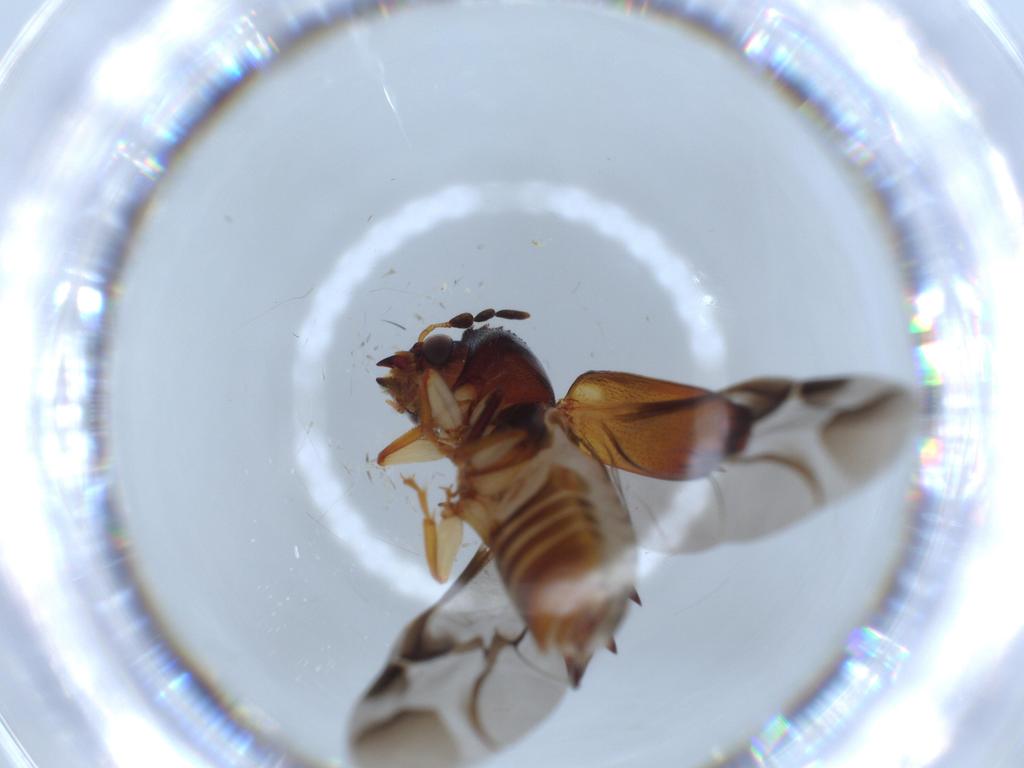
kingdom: Animalia
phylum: Arthropoda
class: Insecta
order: Coleoptera
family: Bostrichidae
